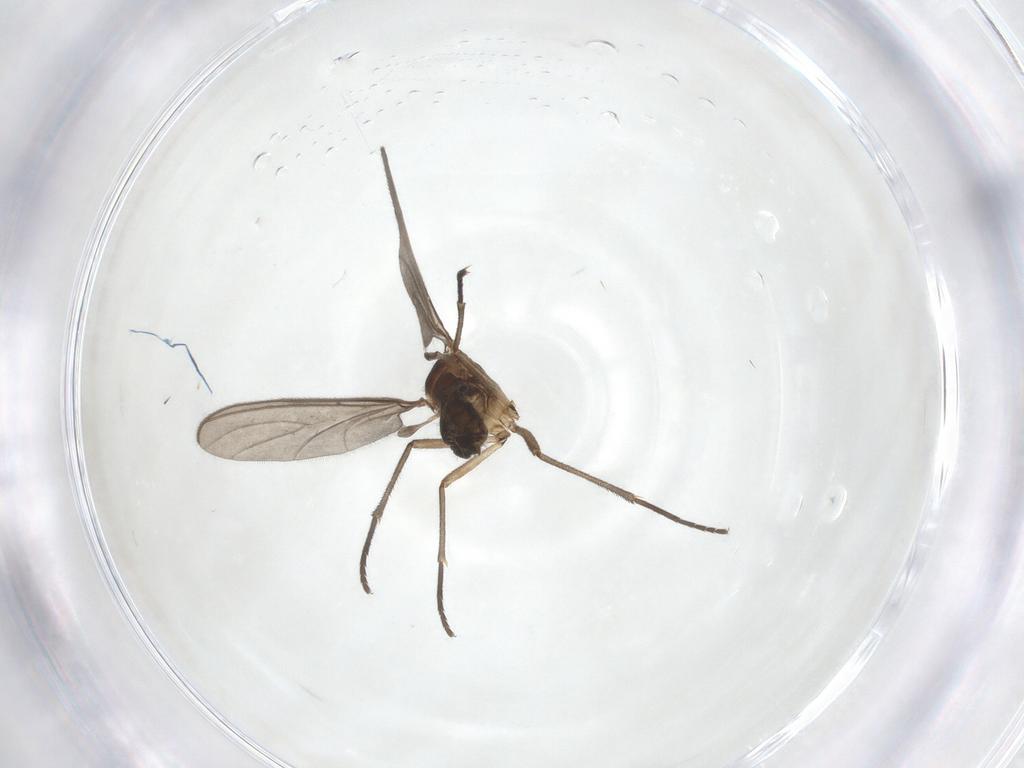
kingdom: Animalia
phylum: Arthropoda
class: Insecta
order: Diptera
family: Sciaridae
